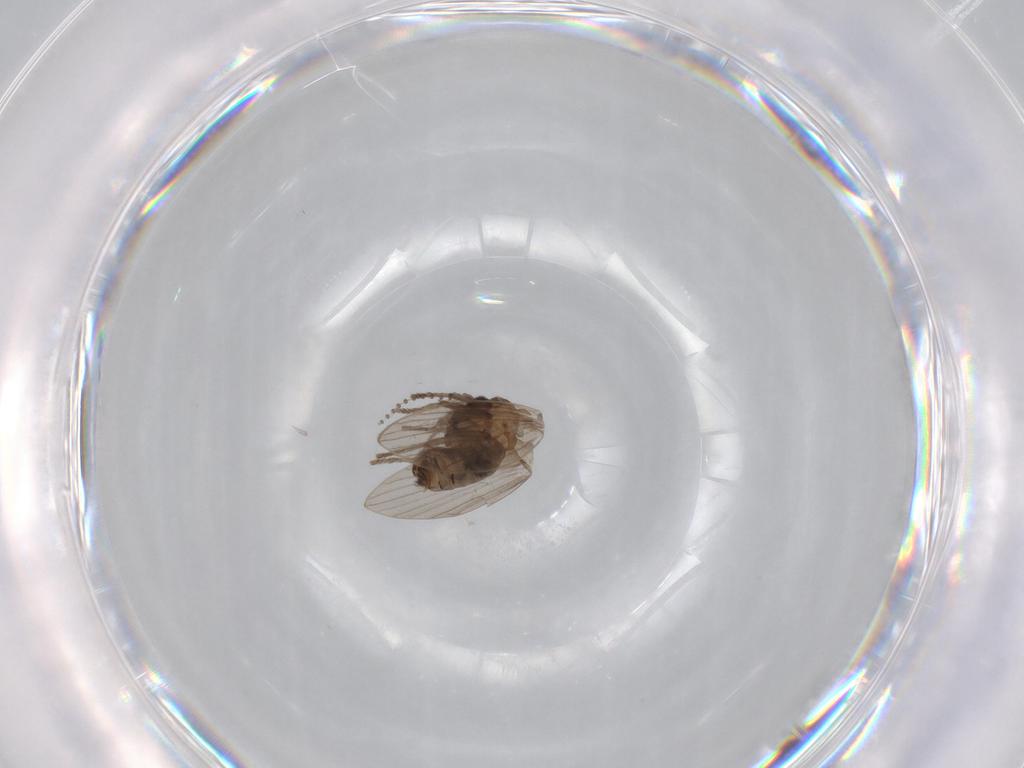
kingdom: Animalia
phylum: Arthropoda
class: Insecta
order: Diptera
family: Psychodidae
